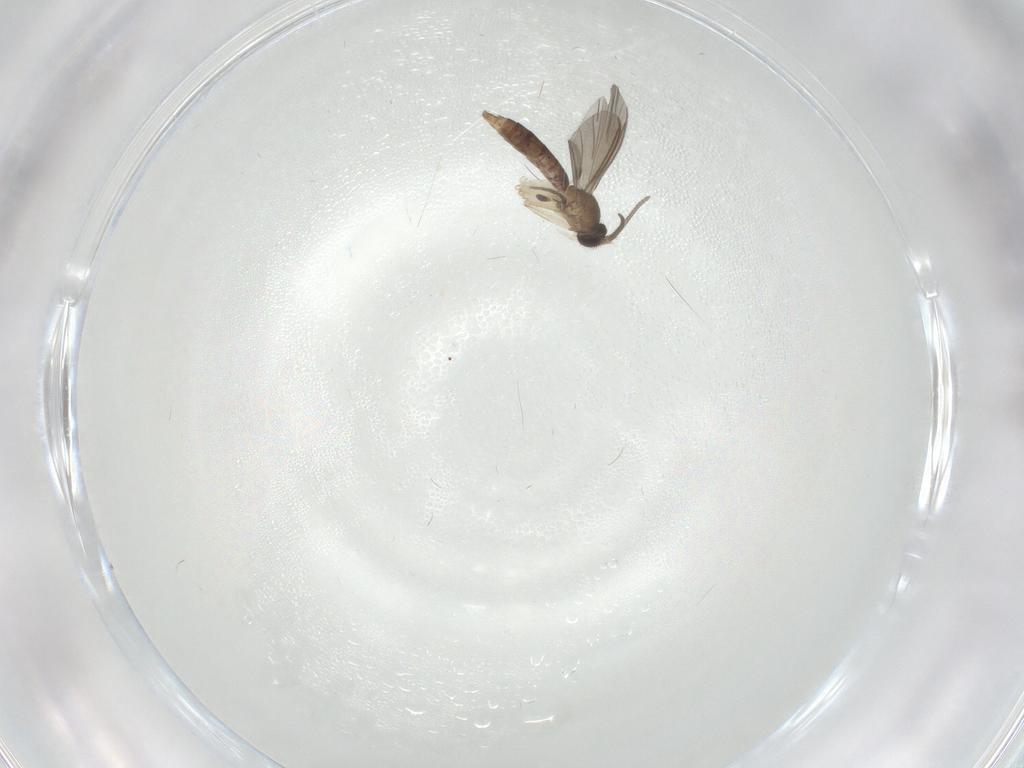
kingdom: Animalia
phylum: Arthropoda
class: Insecta
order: Diptera
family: Mycetophilidae
